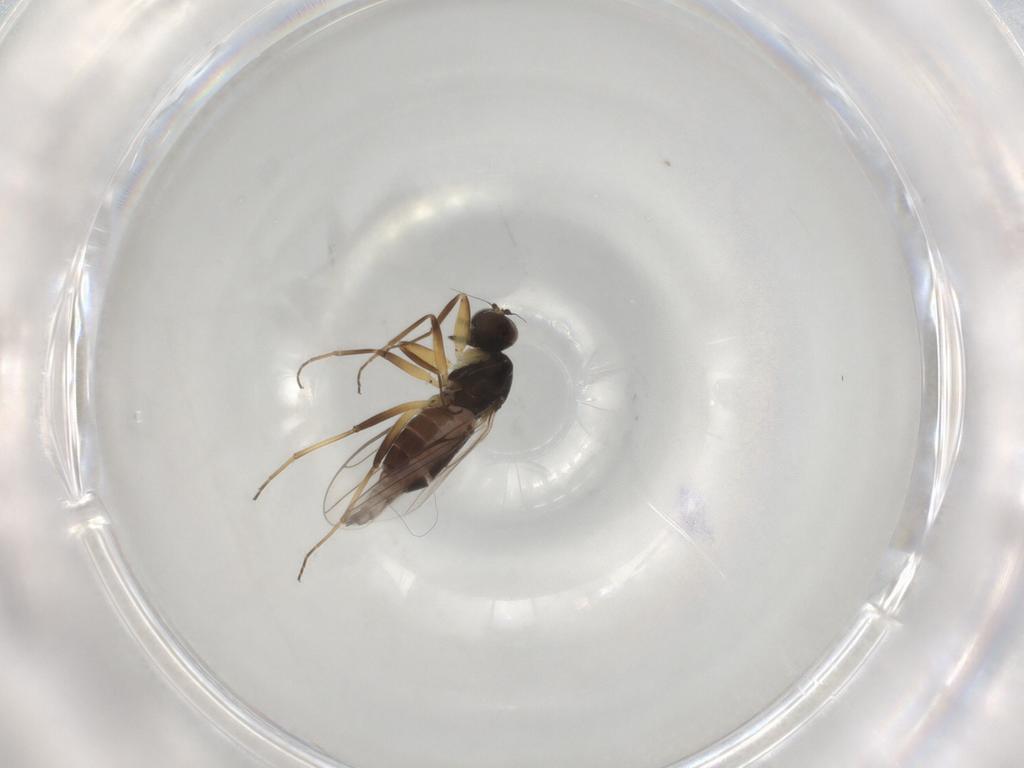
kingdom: Animalia
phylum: Arthropoda
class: Insecta
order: Diptera
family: Hybotidae
